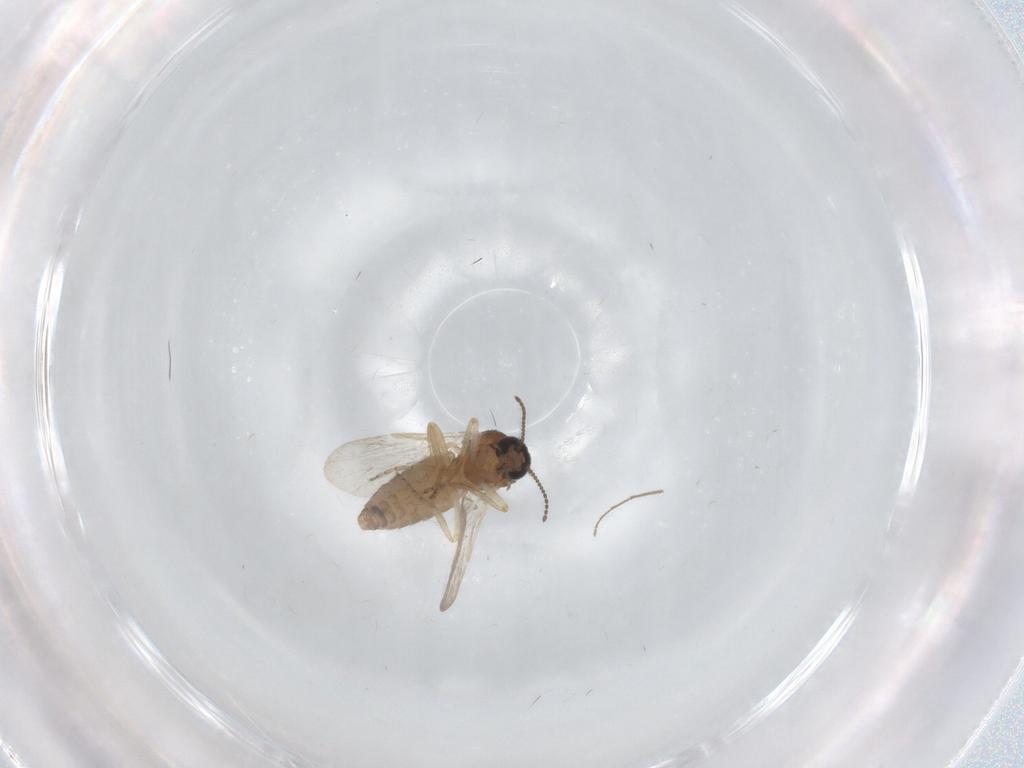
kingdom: Animalia
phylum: Arthropoda
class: Insecta
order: Diptera
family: Chironomidae
